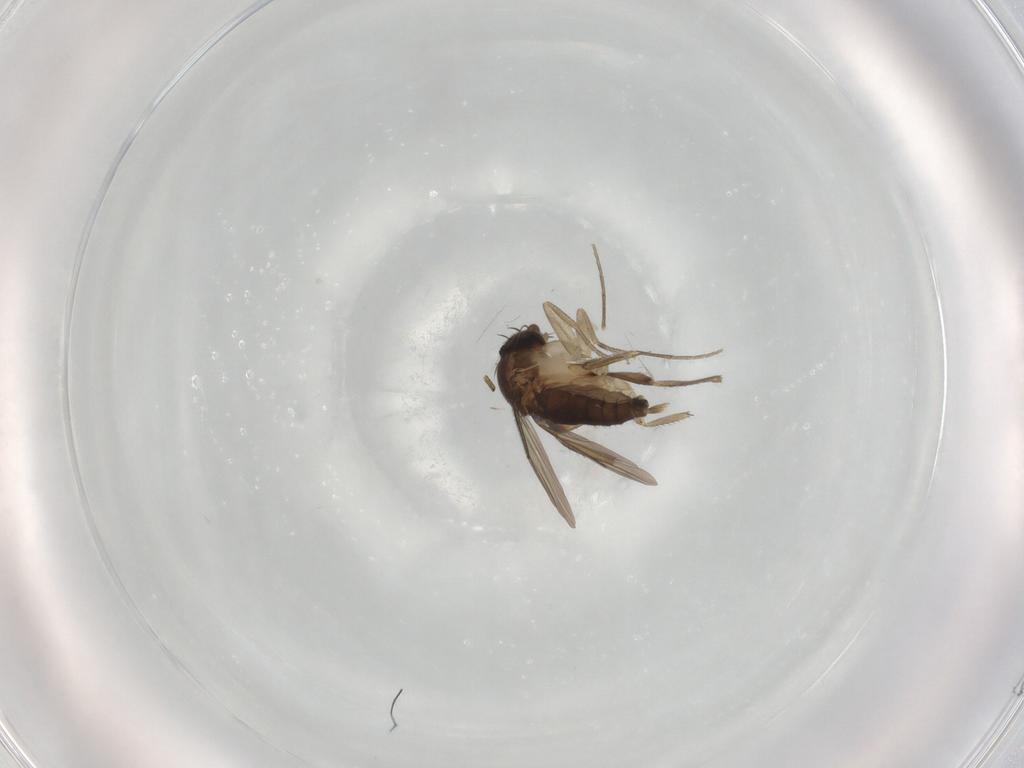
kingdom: Animalia
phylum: Arthropoda
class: Insecta
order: Diptera
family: Phoridae
